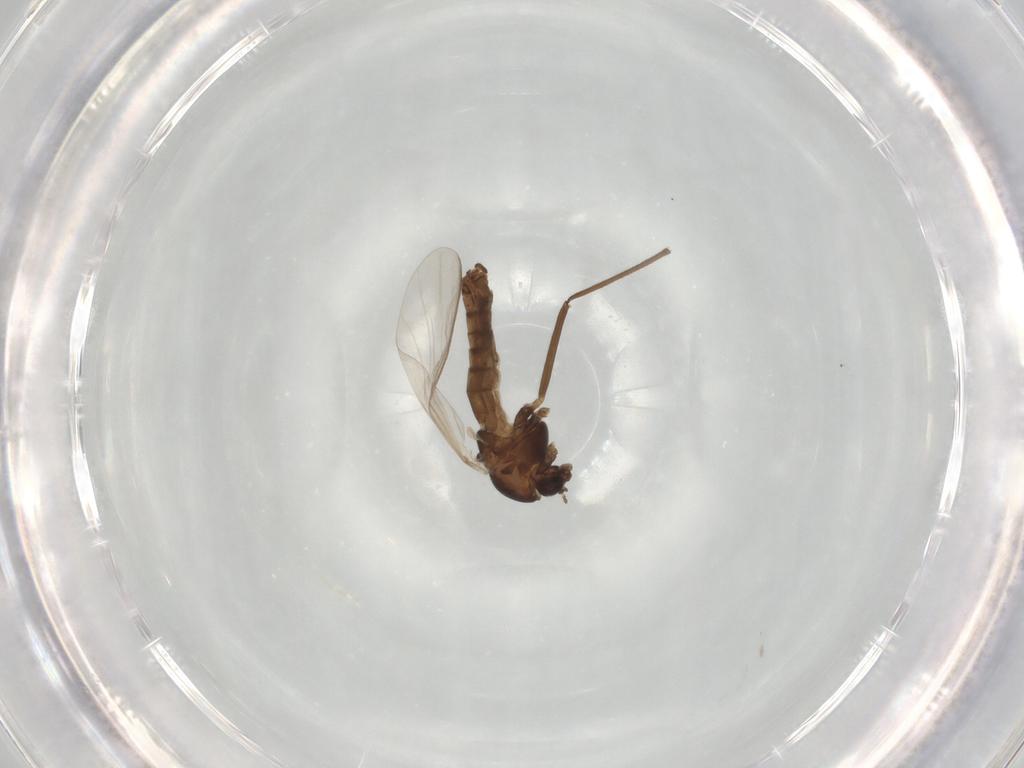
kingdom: Animalia
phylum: Arthropoda
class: Insecta
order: Diptera
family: Chironomidae
